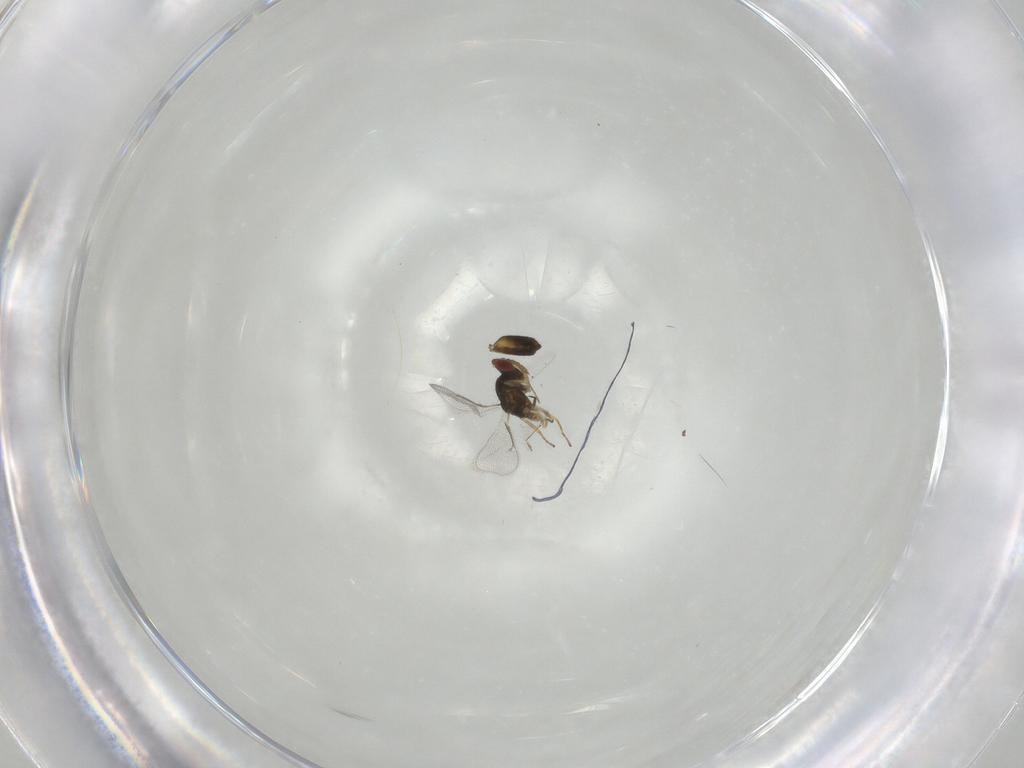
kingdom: Animalia
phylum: Arthropoda
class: Insecta
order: Hymenoptera
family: Eulophidae
